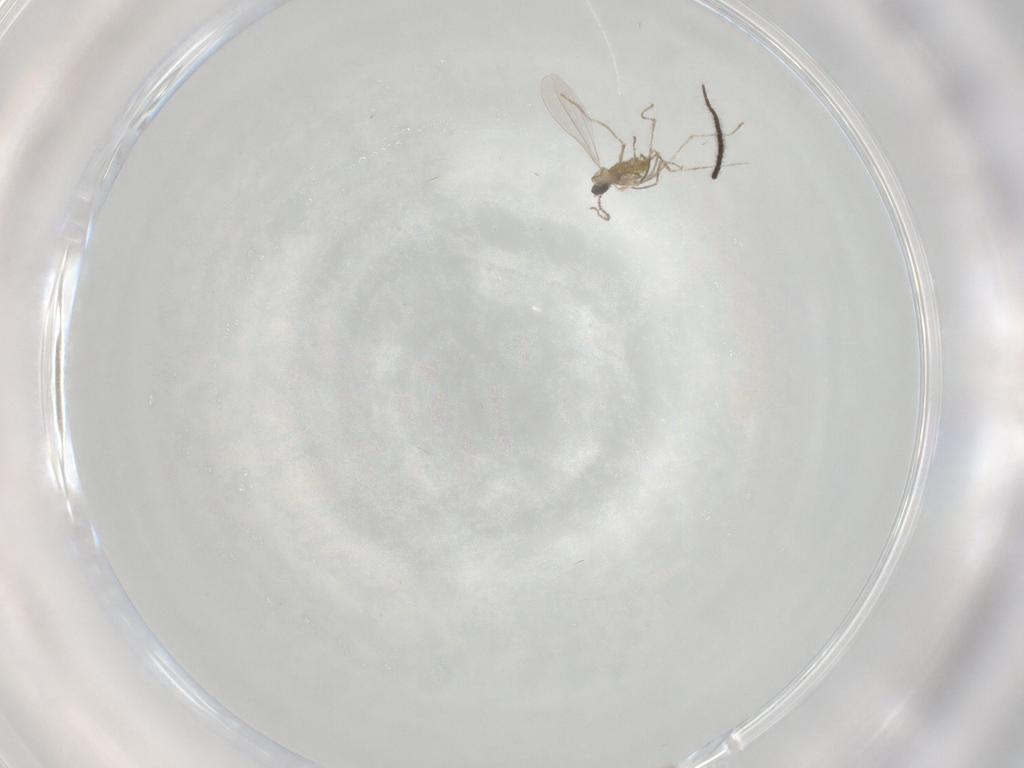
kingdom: Animalia
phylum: Arthropoda
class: Insecta
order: Diptera
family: Cecidomyiidae
